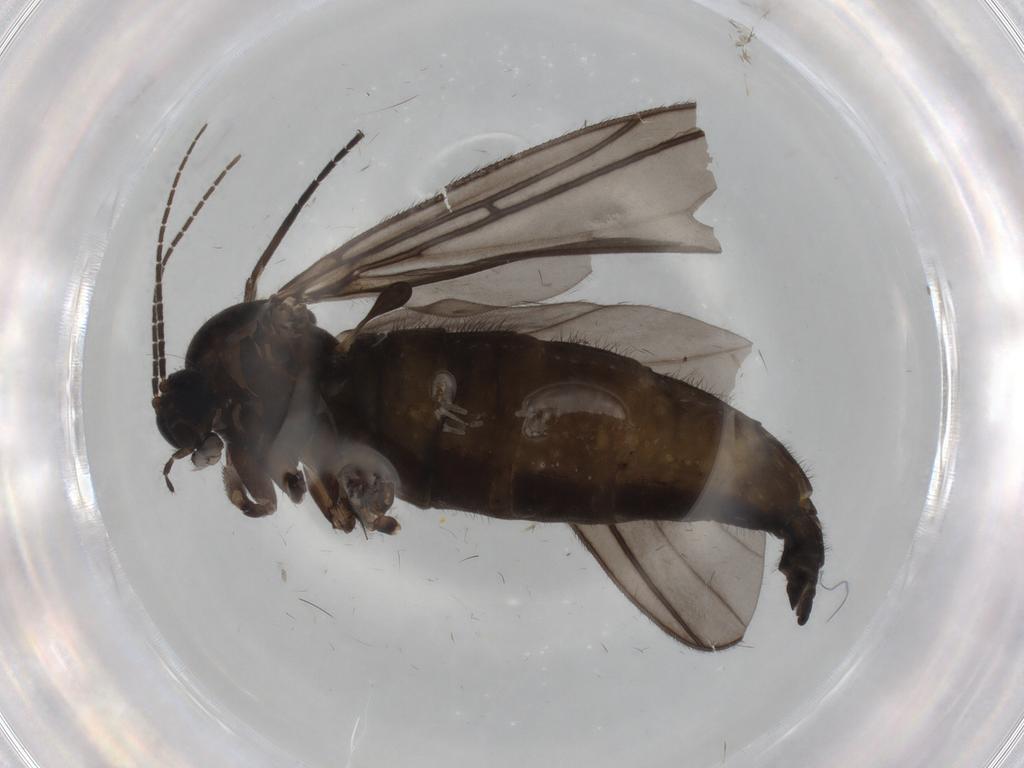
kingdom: Animalia
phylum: Arthropoda
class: Insecta
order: Diptera
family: Sciaridae
